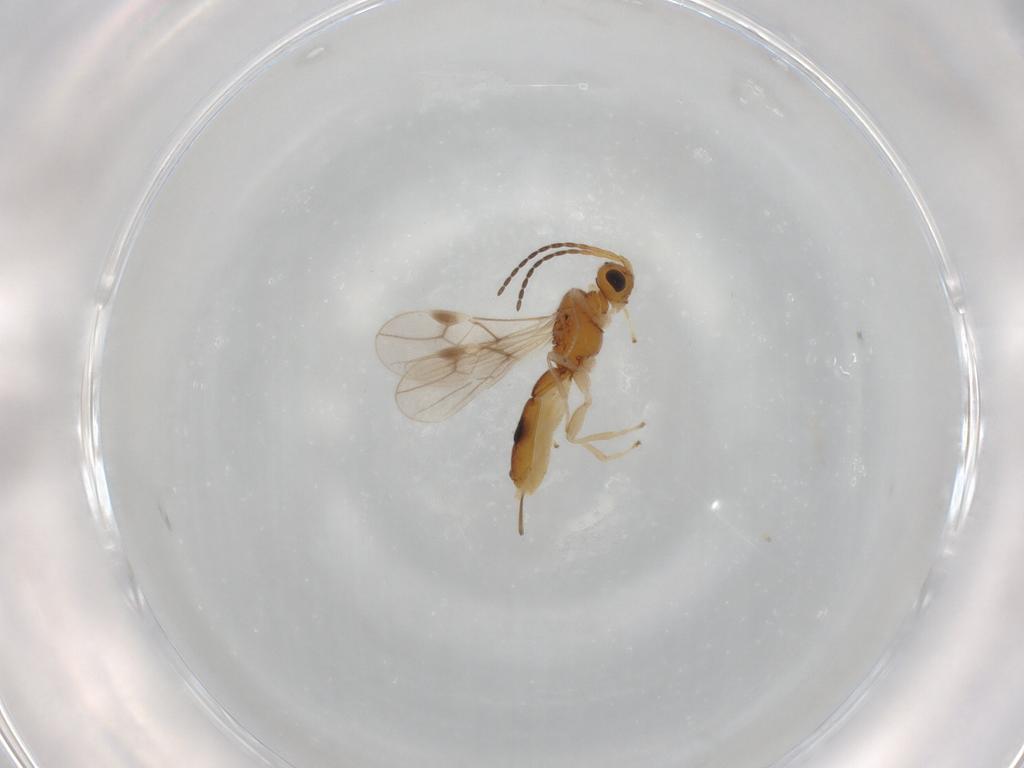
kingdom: Animalia
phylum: Arthropoda
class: Insecta
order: Hymenoptera
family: Braconidae
